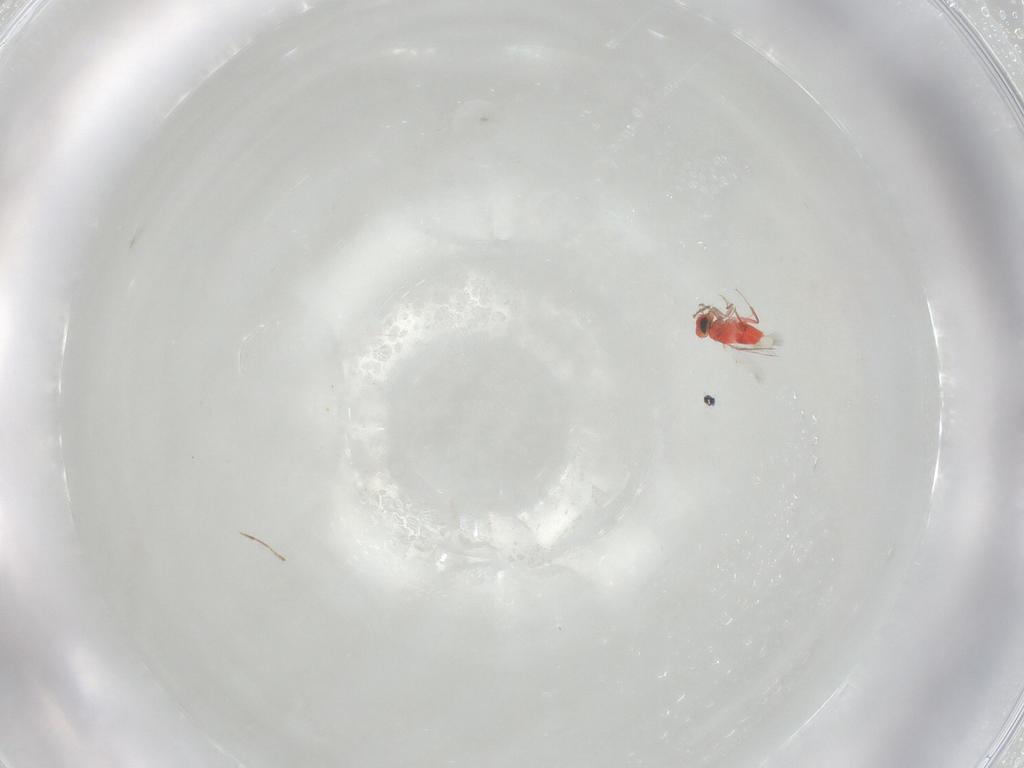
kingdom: Animalia
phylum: Arthropoda
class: Insecta
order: Hymenoptera
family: Trichogrammatidae
